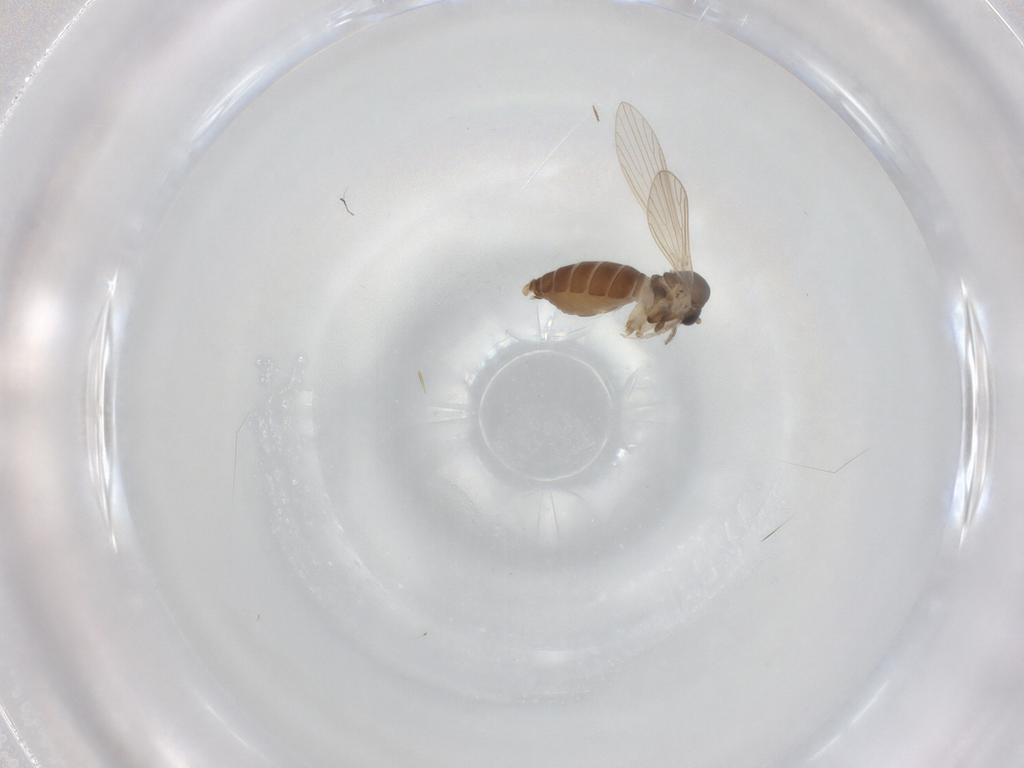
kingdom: Animalia
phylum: Arthropoda
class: Insecta
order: Diptera
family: Psychodidae
